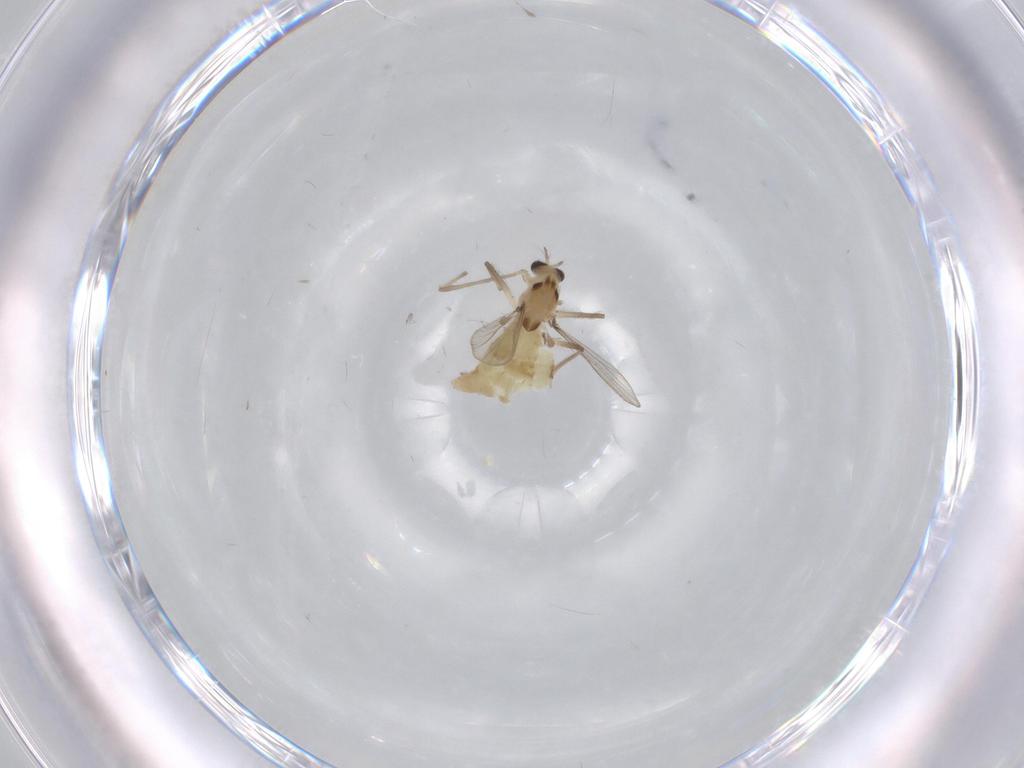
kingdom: Animalia
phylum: Arthropoda
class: Insecta
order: Diptera
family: Chironomidae
